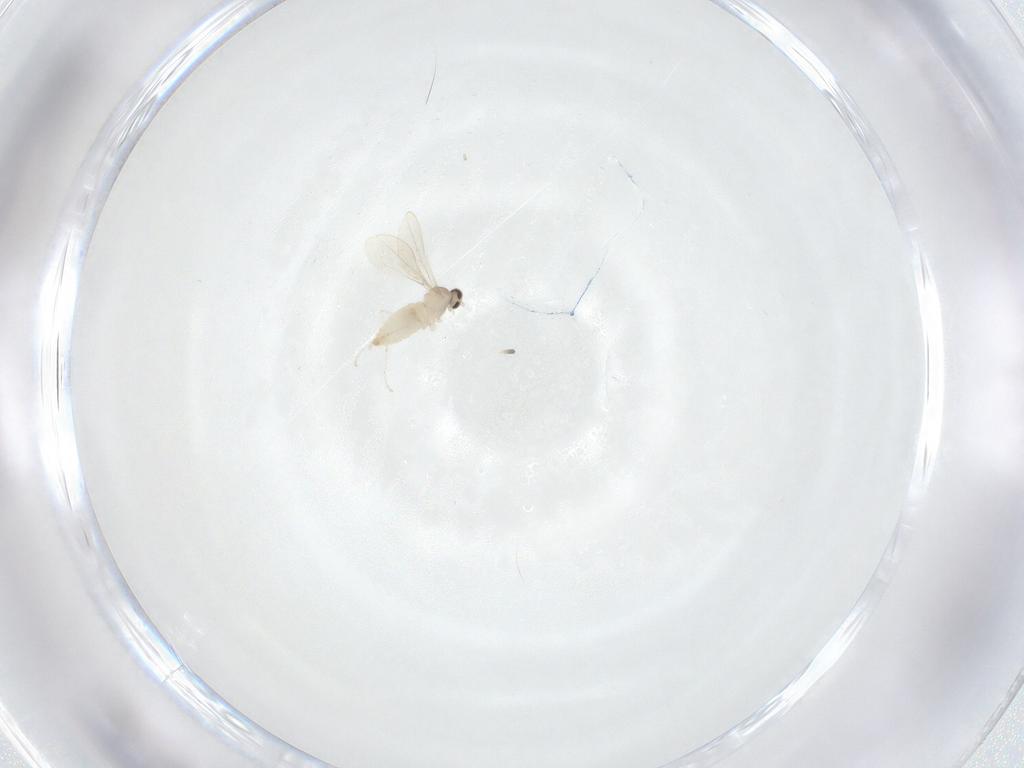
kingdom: Animalia
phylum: Arthropoda
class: Insecta
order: Diptera
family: Cecidomyiidae
